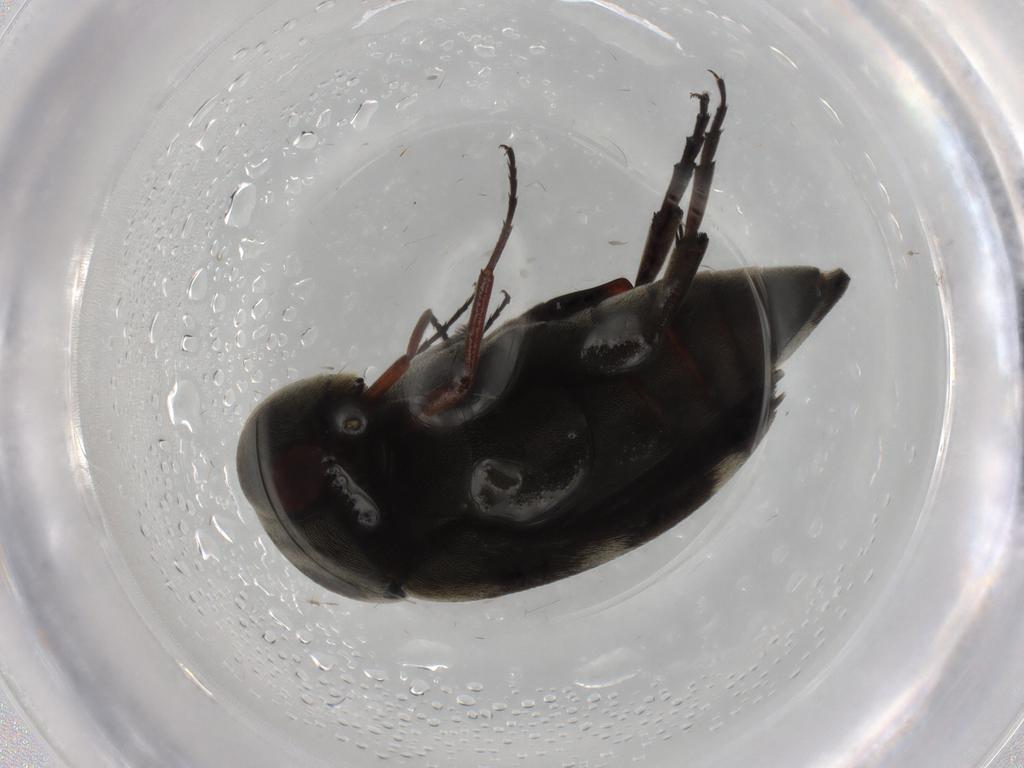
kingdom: Animalia
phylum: Arthropoda
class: Insecta
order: Coleoptera
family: Mordellidae
